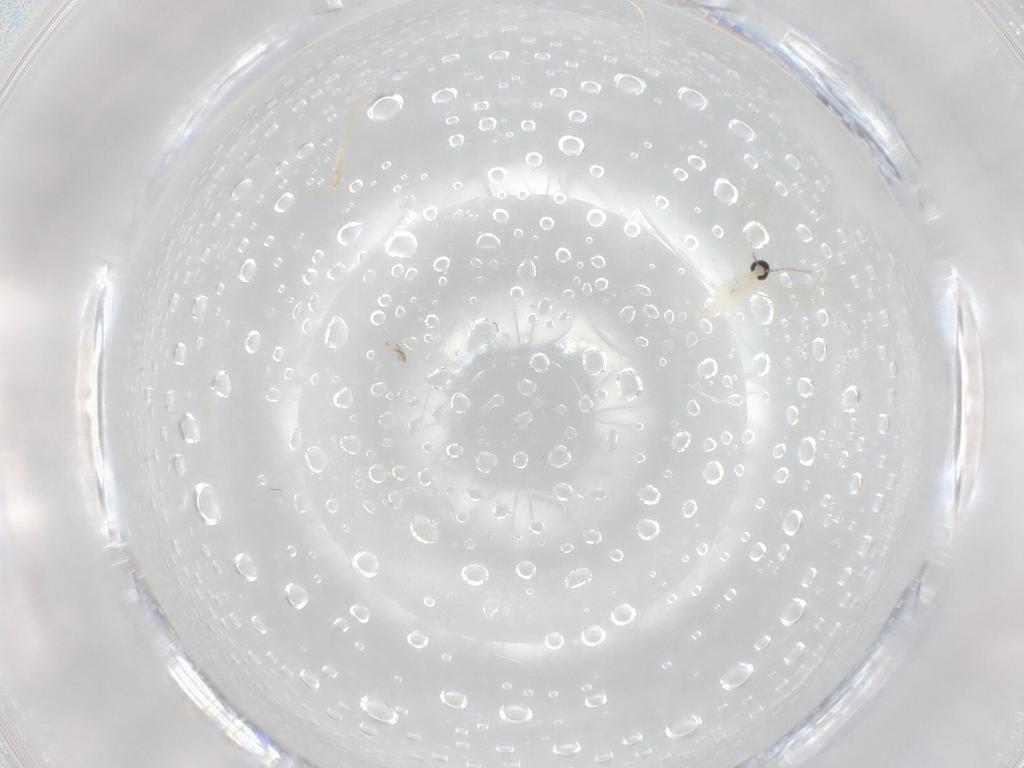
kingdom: Animalia
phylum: Arthropoda
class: Insecta
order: Diptera
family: Cecidomyiidae
